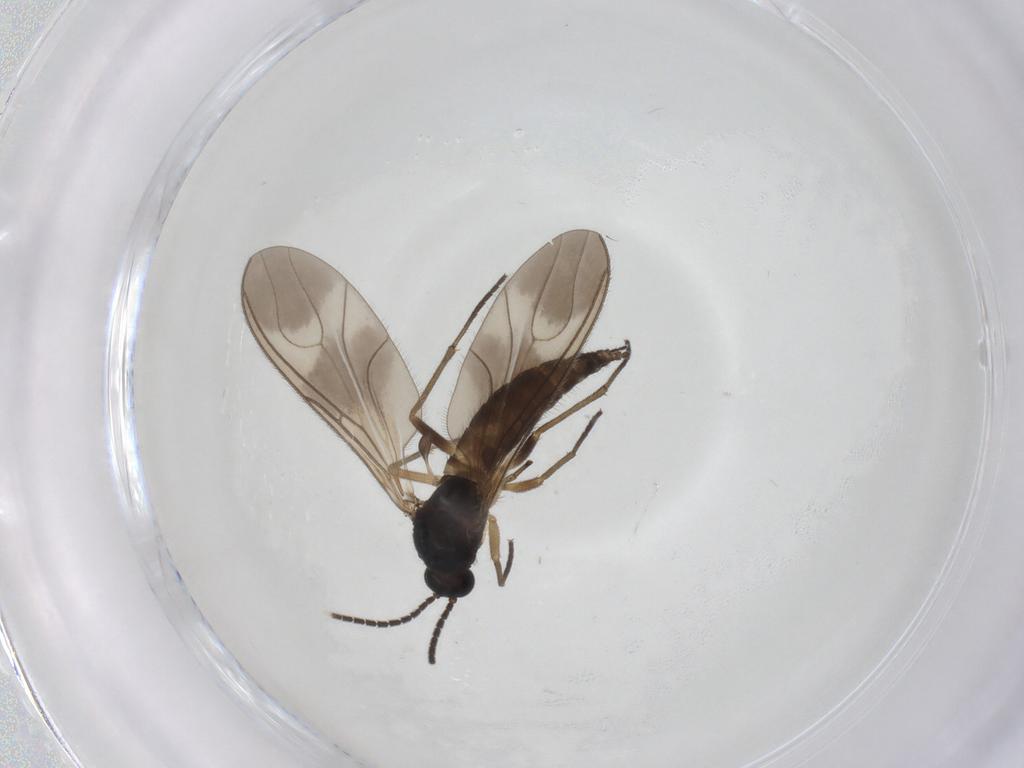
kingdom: Animalia
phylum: Arthropoda
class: Insecta
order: Diptera
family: Sciaridae
